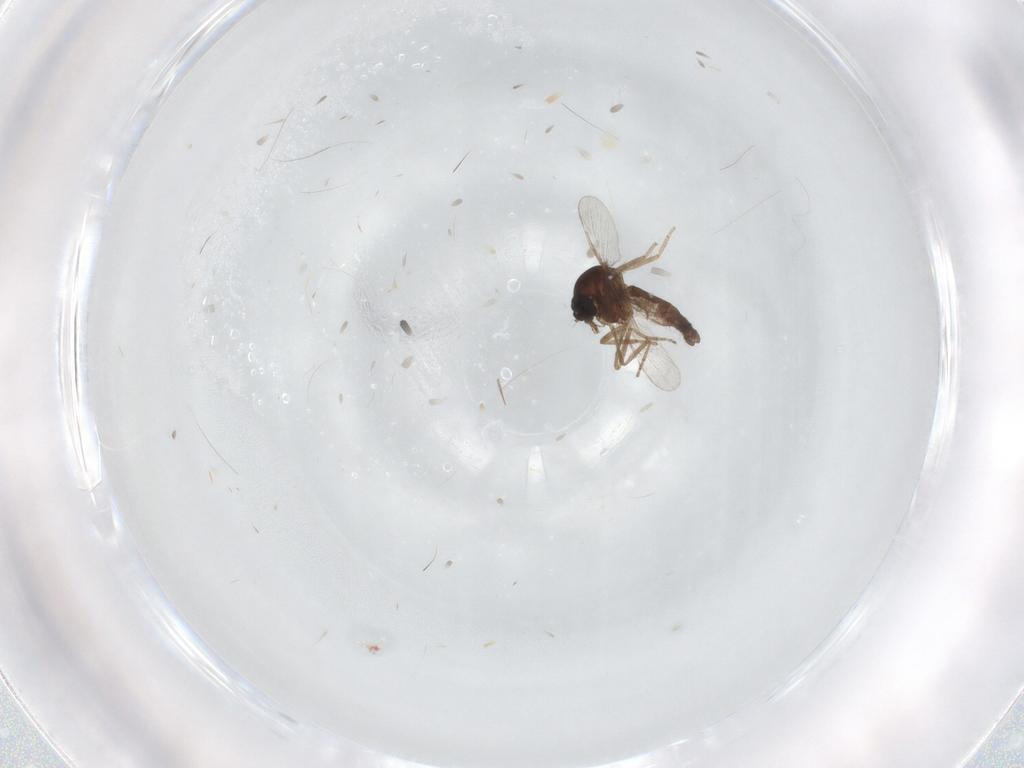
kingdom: Animalia
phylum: Arthropoda
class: Insecta
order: Diptera
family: Ceratopogonidae
